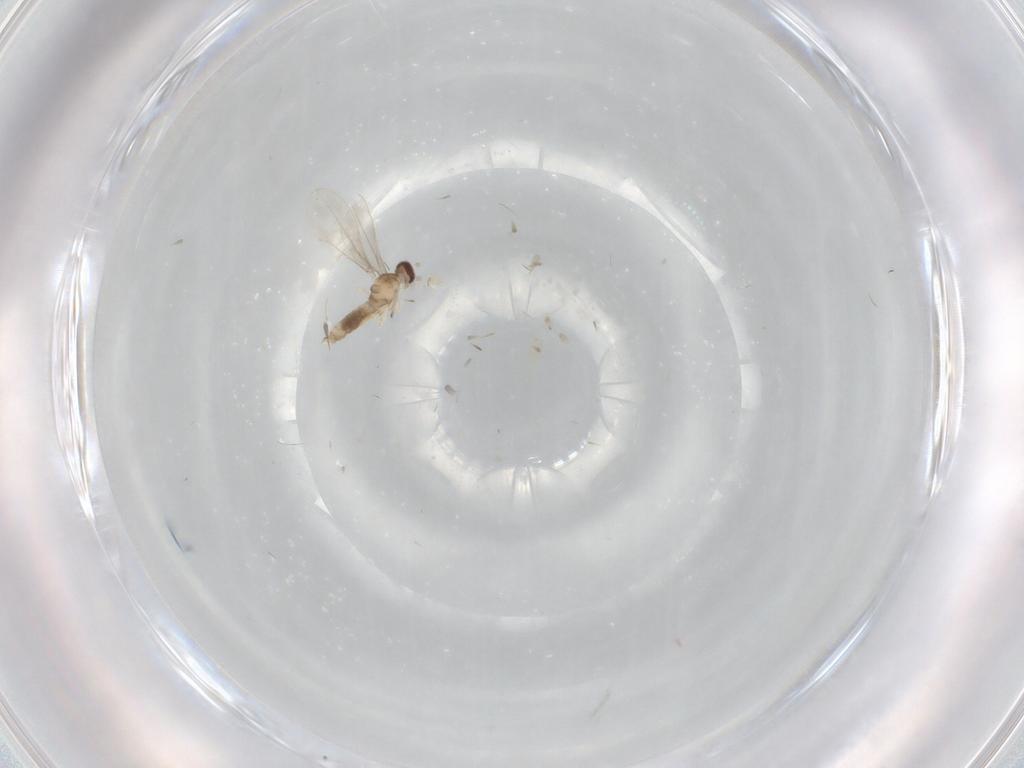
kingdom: Animalia
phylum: Arthropoda
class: Insecta
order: Diptera
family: Cecidomyiidae
